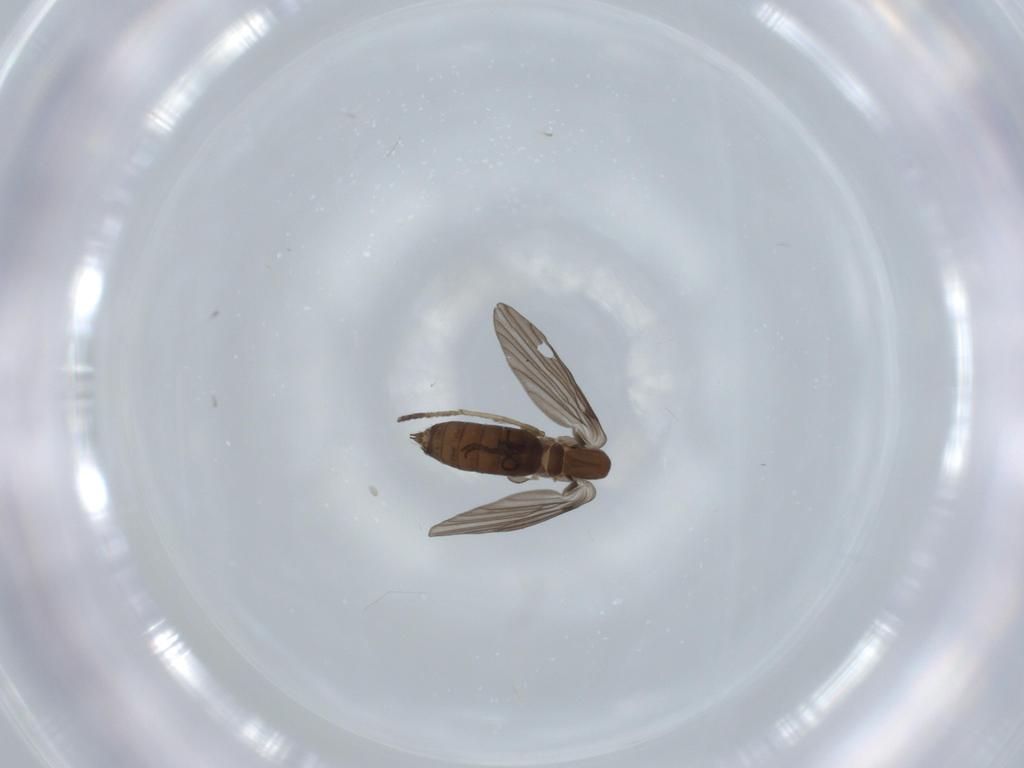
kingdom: Animalia
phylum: Arthropoda
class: Insecta
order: Diptera
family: Psychodidae
